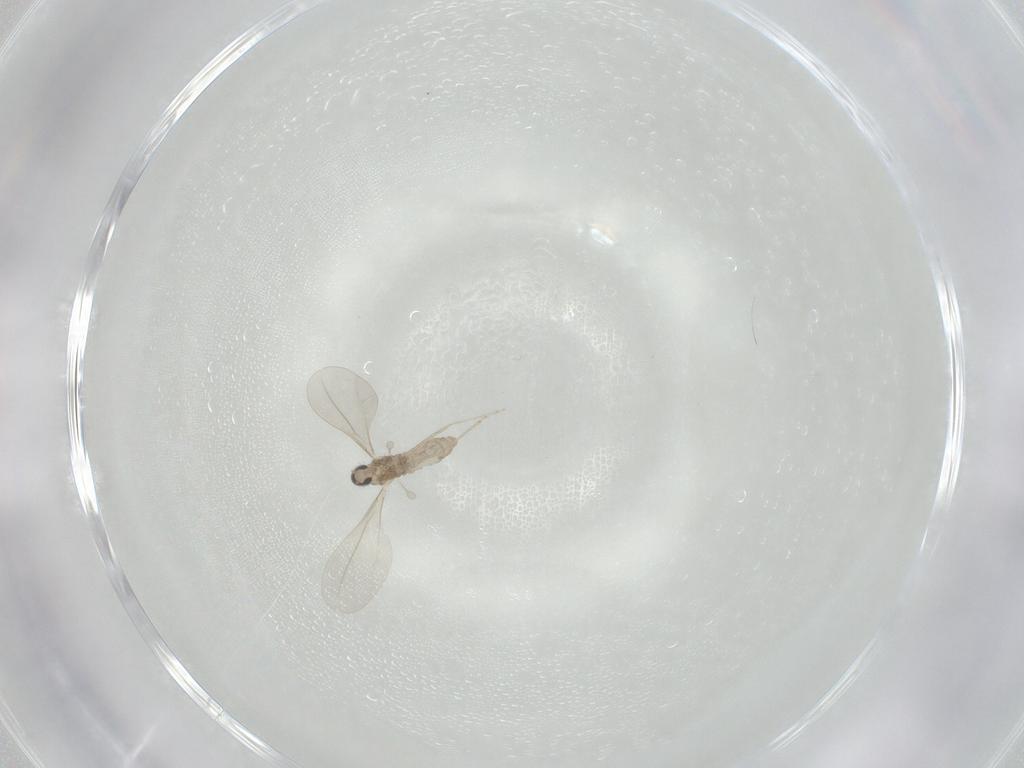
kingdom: Animalia
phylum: Arthropoda
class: Insecta
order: Diptera
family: Cecidomyiidae
